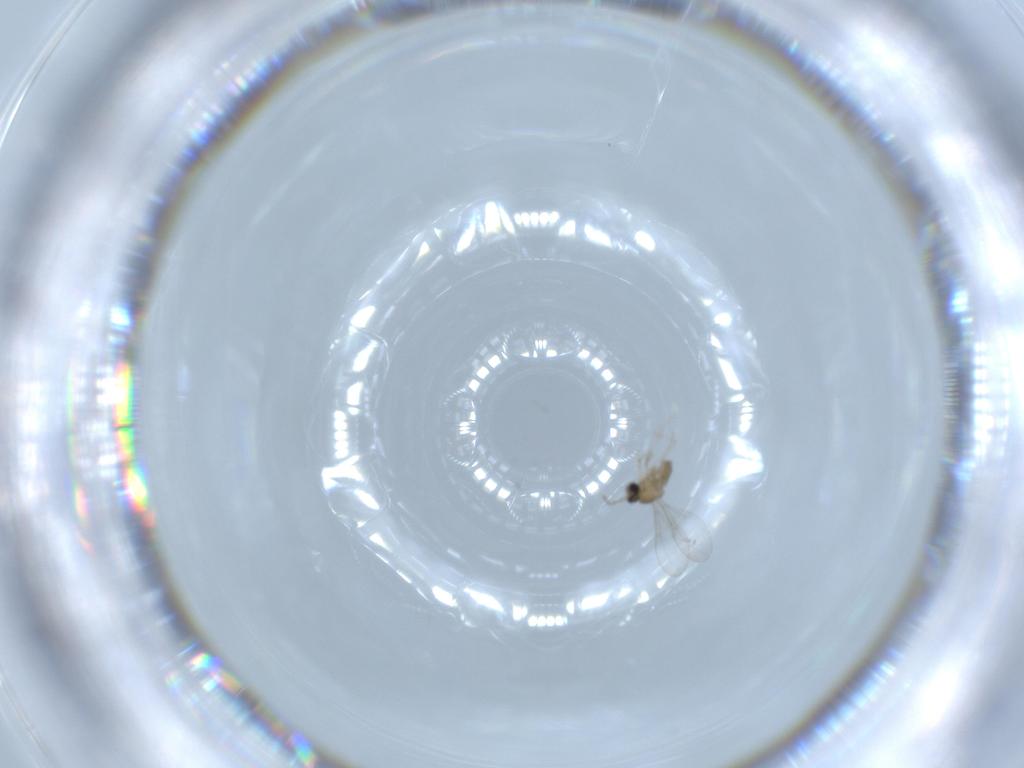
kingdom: Animalia
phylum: Arthropoda
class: Insecta
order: Diptera
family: Cecidomyiidae
